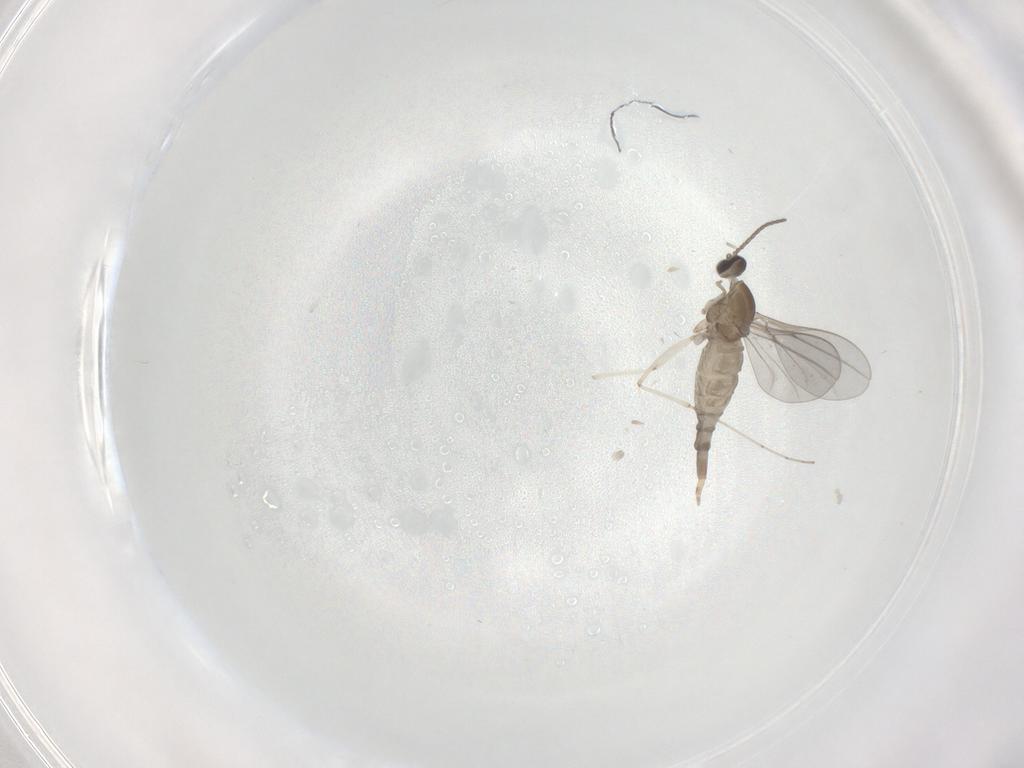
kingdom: Animalia
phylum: Arthropoda
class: Insecta
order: Diptera
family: Cecidomyiidae
